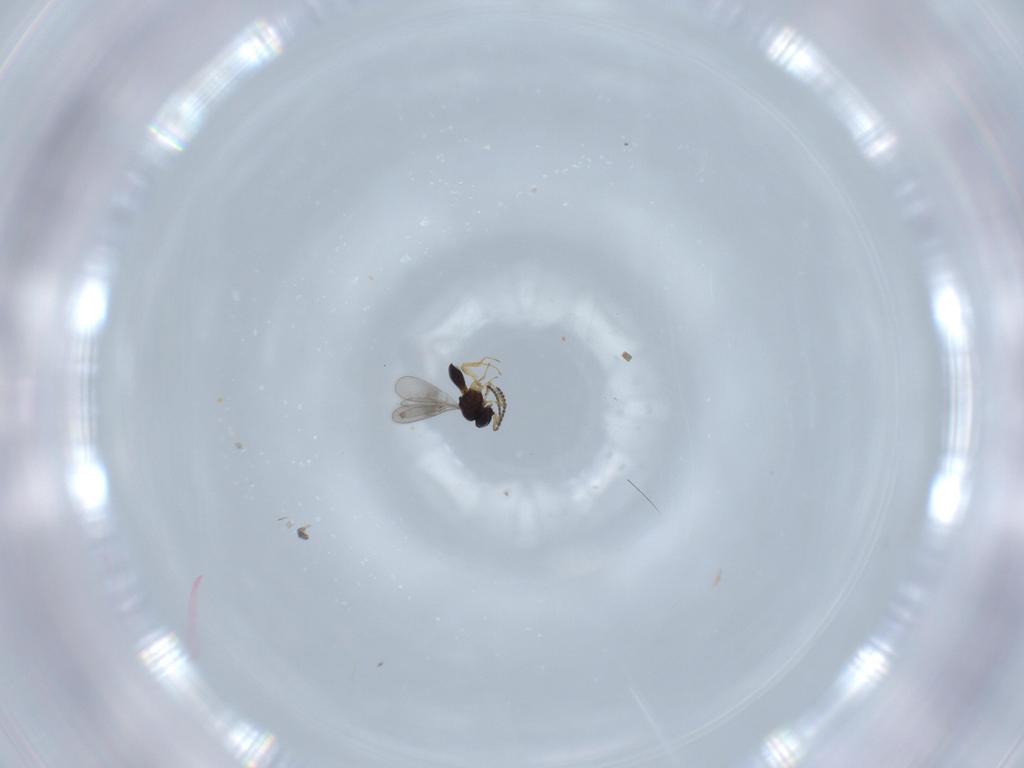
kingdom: Animalia
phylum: Arthropoda
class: Insecta
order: Hymenoptera
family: Scelionidae
